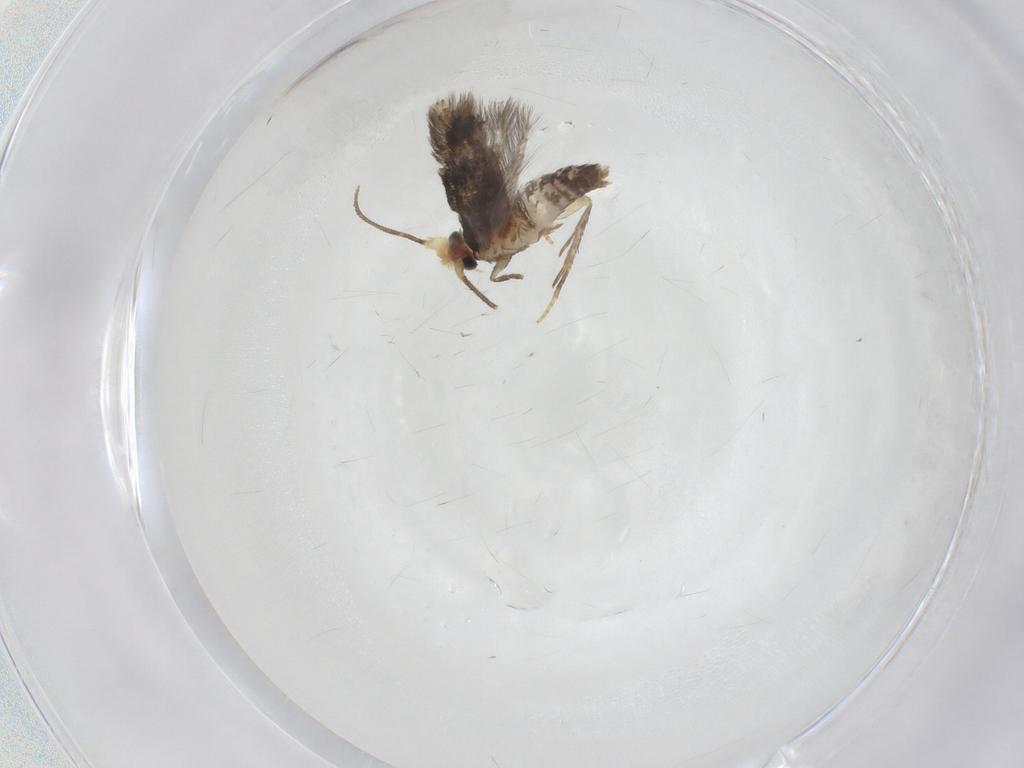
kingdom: Animalia
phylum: Arthropoda
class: Insecta
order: Lepidoptera
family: Nepticulidae
